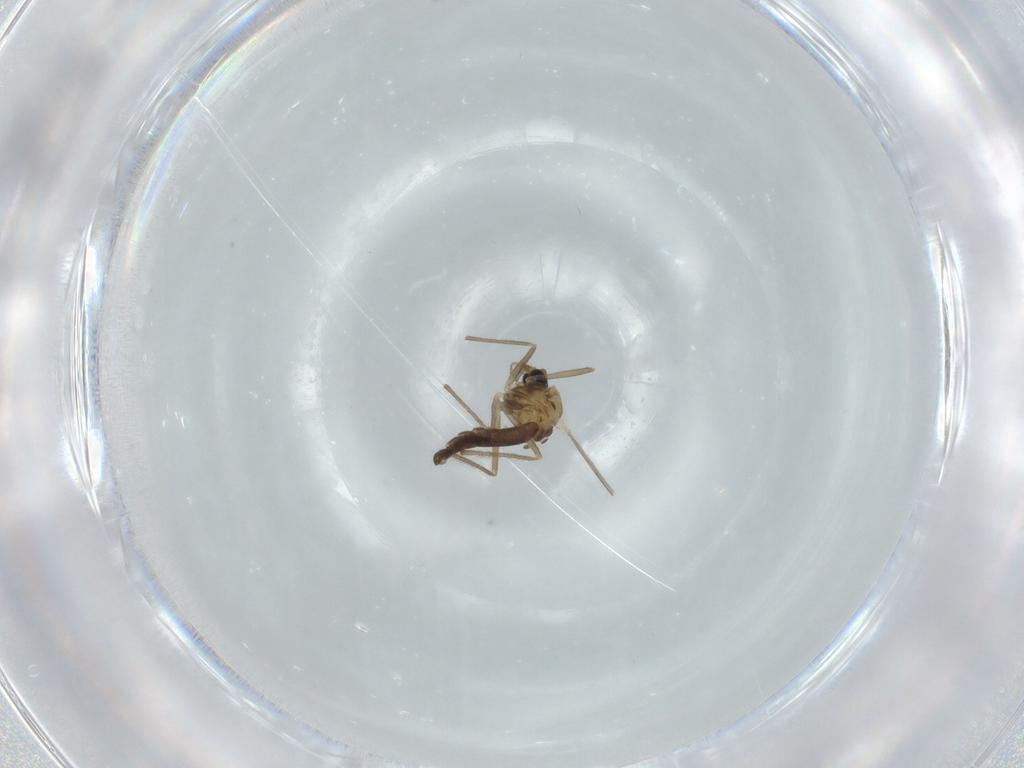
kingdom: Animalia
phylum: Arthropoda
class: Insecta
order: Diptera
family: Chironomidae
